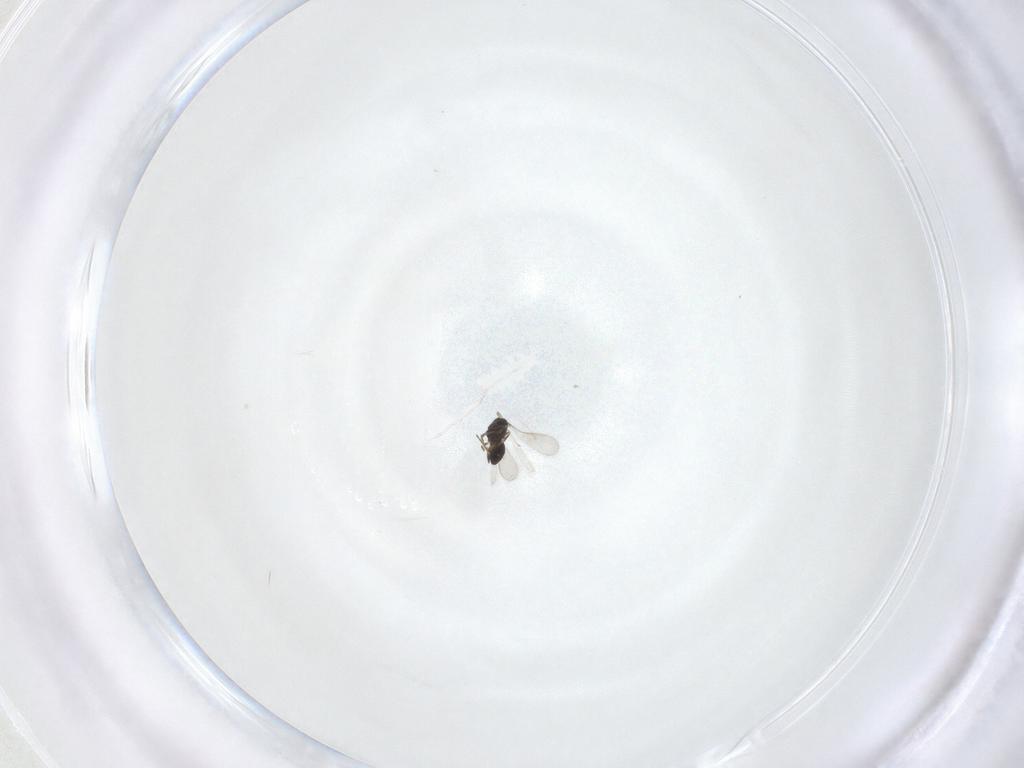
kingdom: Animalia
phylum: Arthropoda
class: Insecta
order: Hymenoptera
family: Scelionidae
